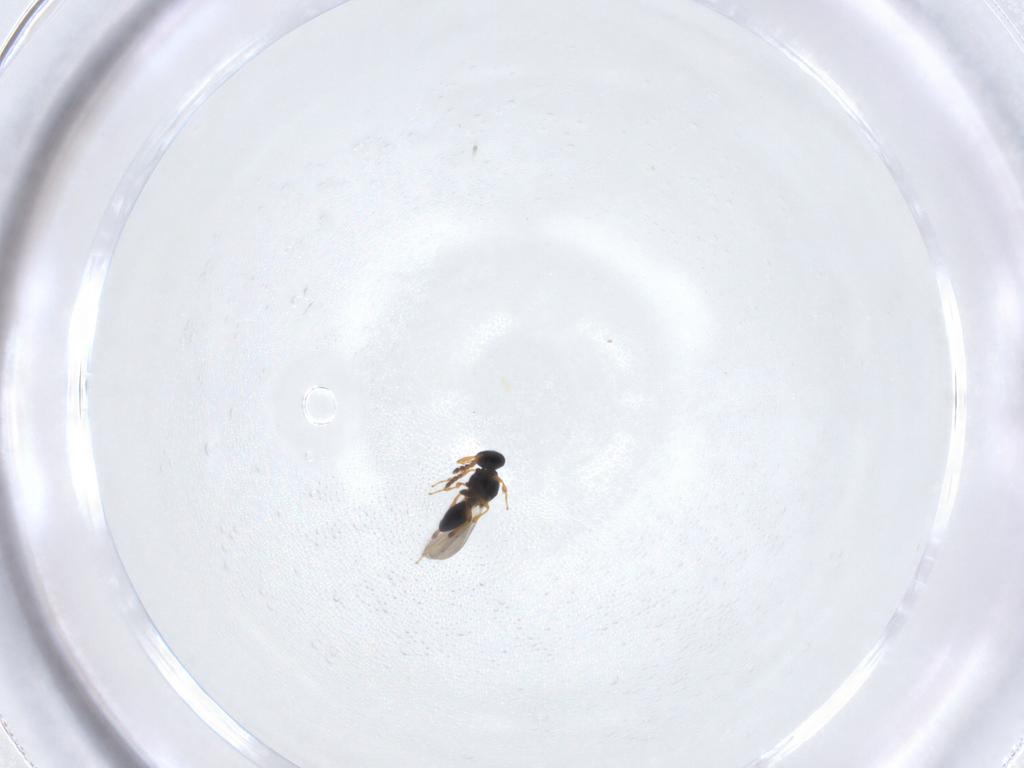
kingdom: Animalia
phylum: Arthropoda
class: Insecta
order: Hymenoptera
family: Platygastridae
